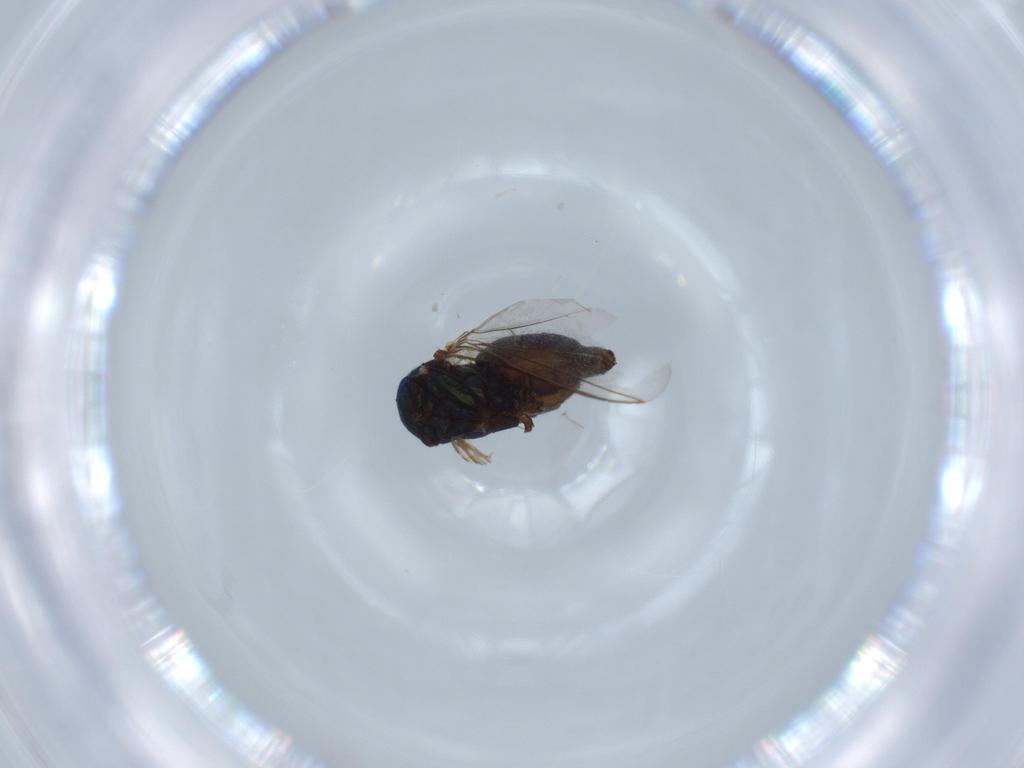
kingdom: Animalia
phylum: Arthropoda
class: Insecta
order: Diptera
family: Dolichopodidae
